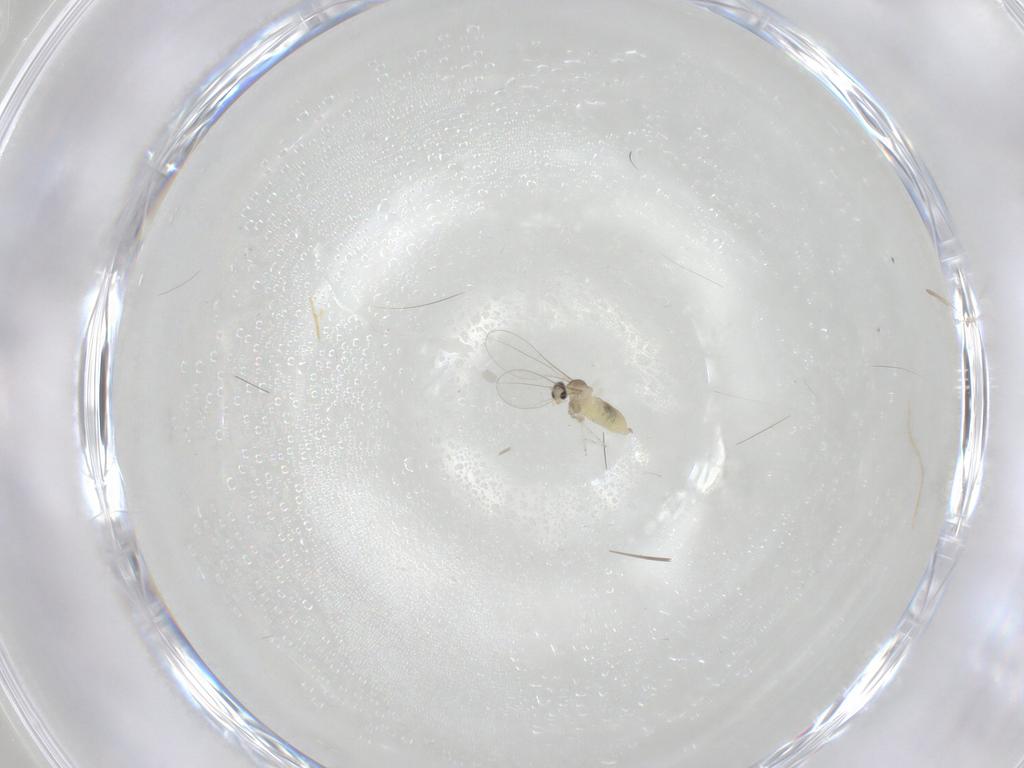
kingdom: Animalia
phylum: Arthropoda
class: Insecta
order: Diptera
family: Cecidomyiidae
